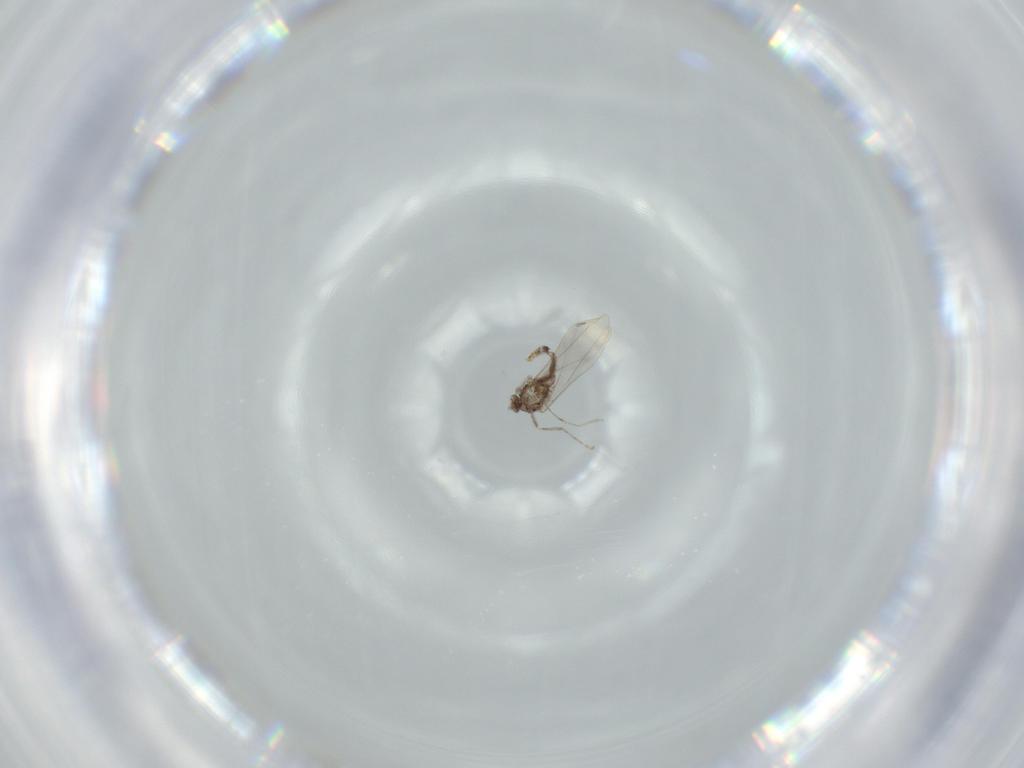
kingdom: Animalia
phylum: Arthropoda
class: Insecta
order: Diptera
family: Cecidomyiidae
